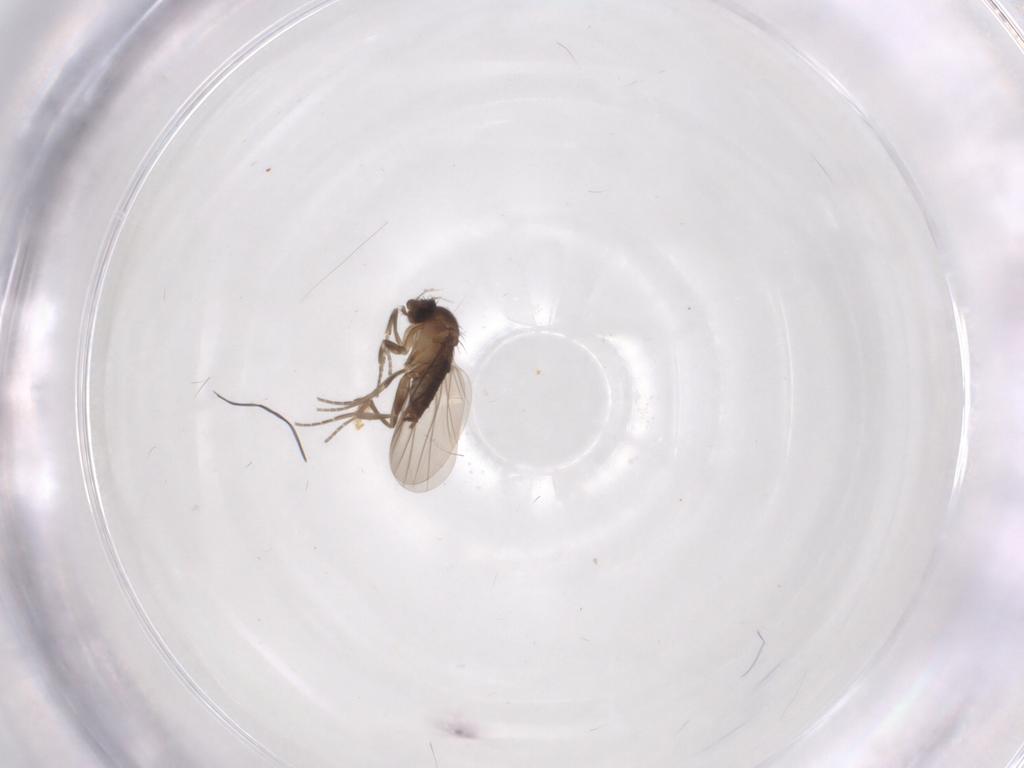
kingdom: Animalia
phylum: Arthropoda
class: Insecta
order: Diptera
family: Phoridae
